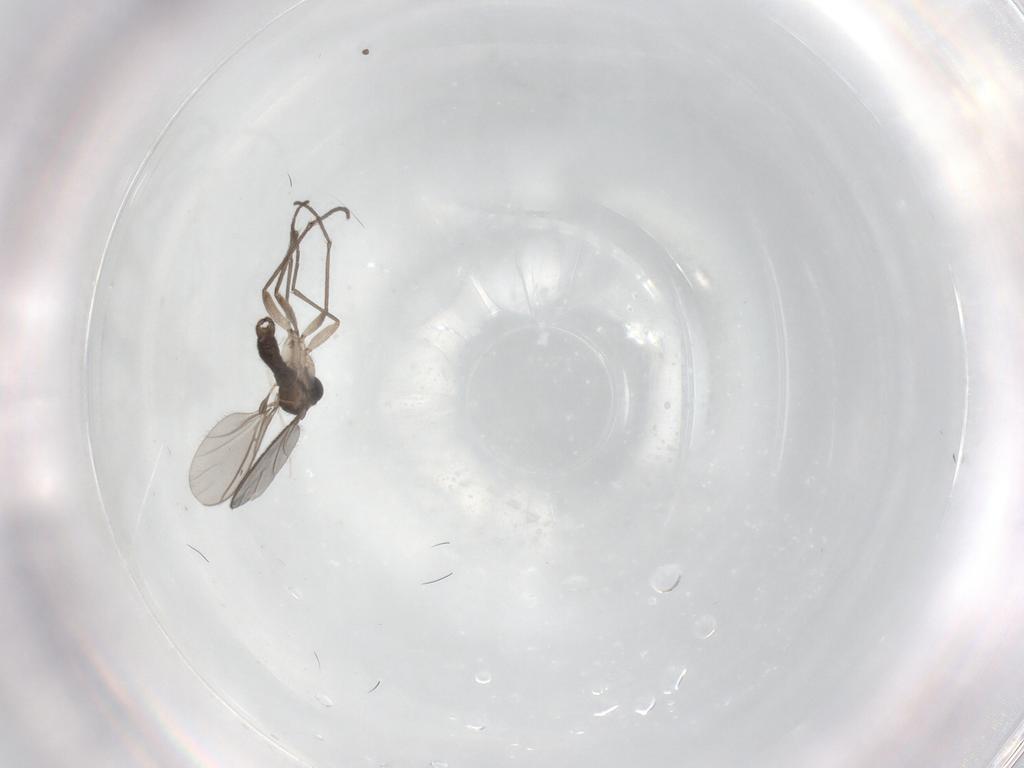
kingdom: Animalia
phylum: Arthropoda
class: Insecta
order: Diptera
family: Sciaridae
